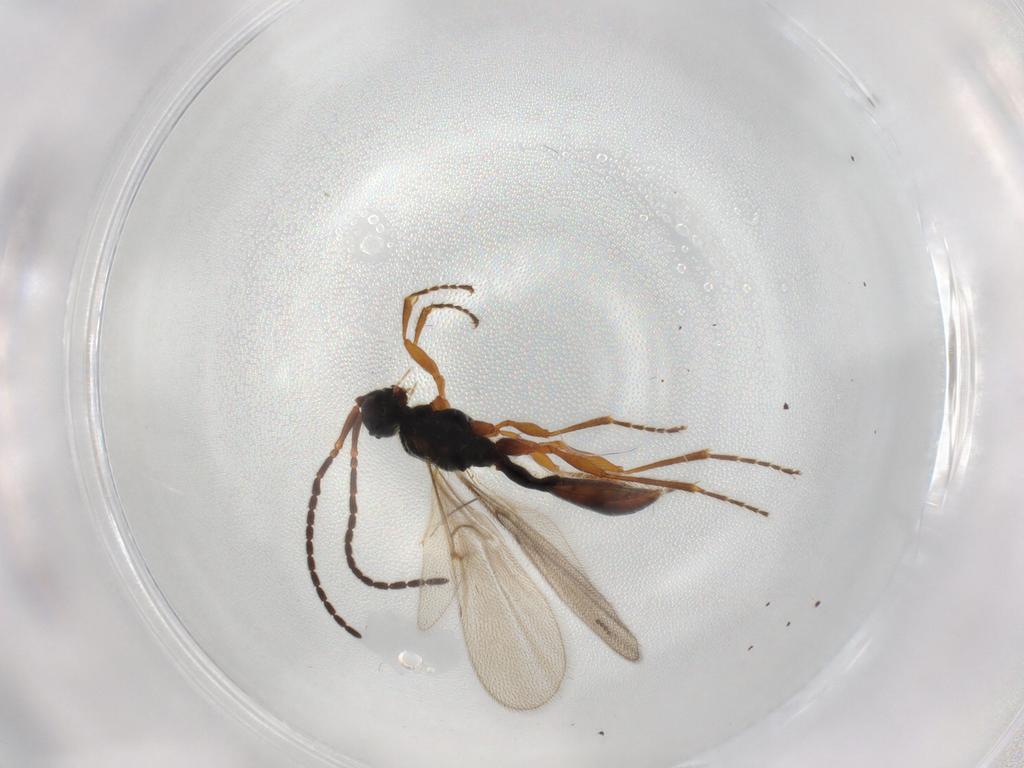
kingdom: Animalia
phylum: Arthropoda
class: Insecta
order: Hymenoptera
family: Diapriidae
